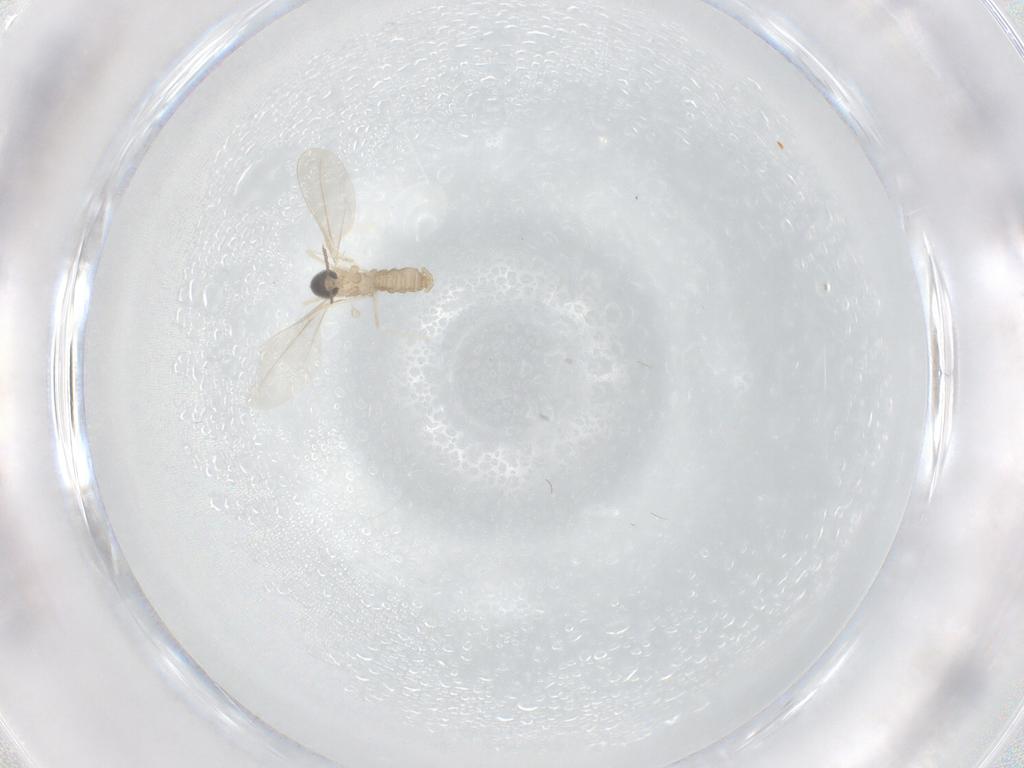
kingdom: Animalia
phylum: Arthropoda
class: Insecta
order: Diptera
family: Cecidomyiidae
